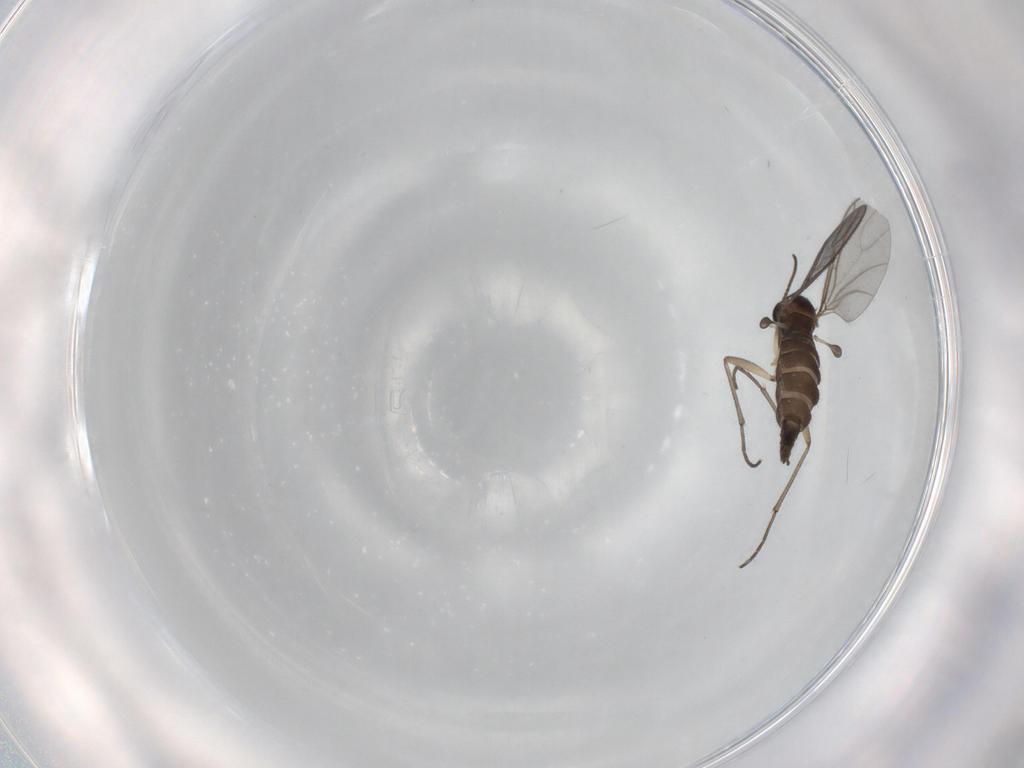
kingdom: Animalia
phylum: Arthropoda
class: Insecta
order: Diptera
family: Sciaridae
